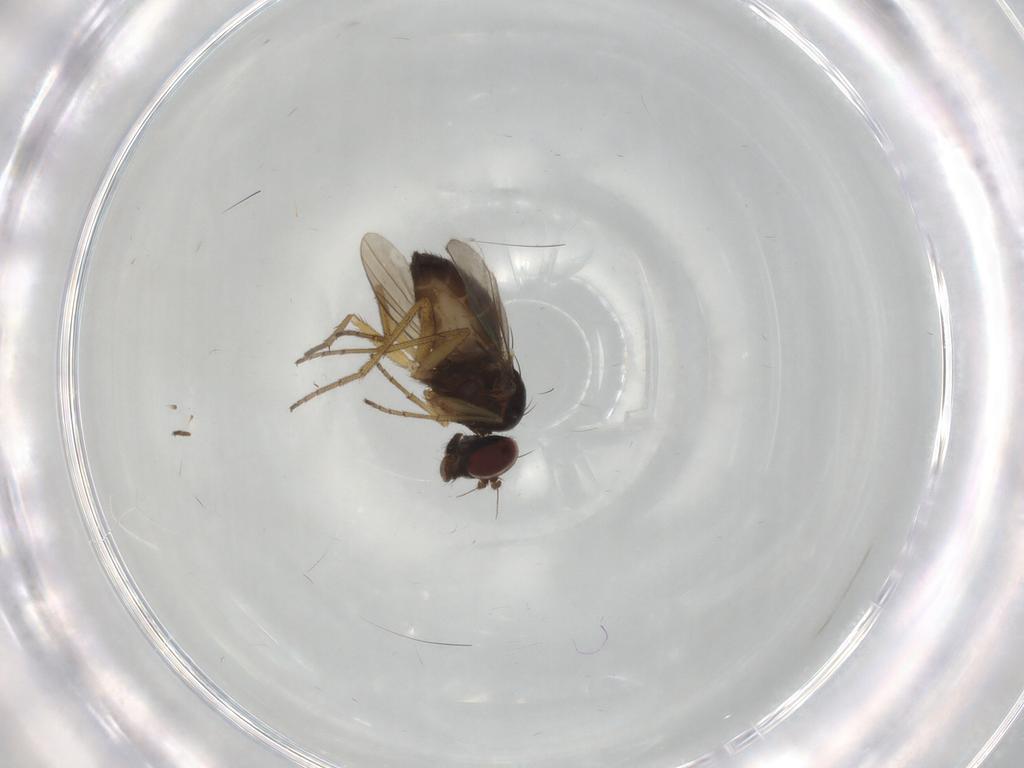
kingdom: Animalia
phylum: Arthropoda
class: Insecta
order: Diptera
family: Dolichopodidae
